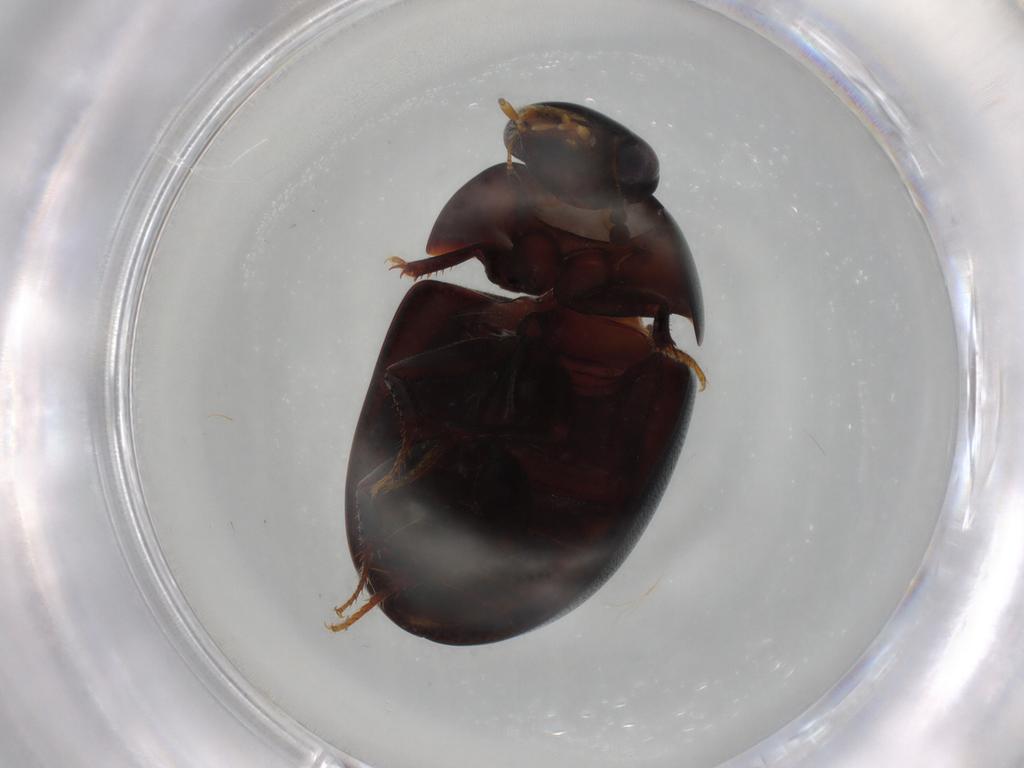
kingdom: Animalia
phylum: Arthropoda
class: Insecta
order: Coleoptera
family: Hydrophilidae
